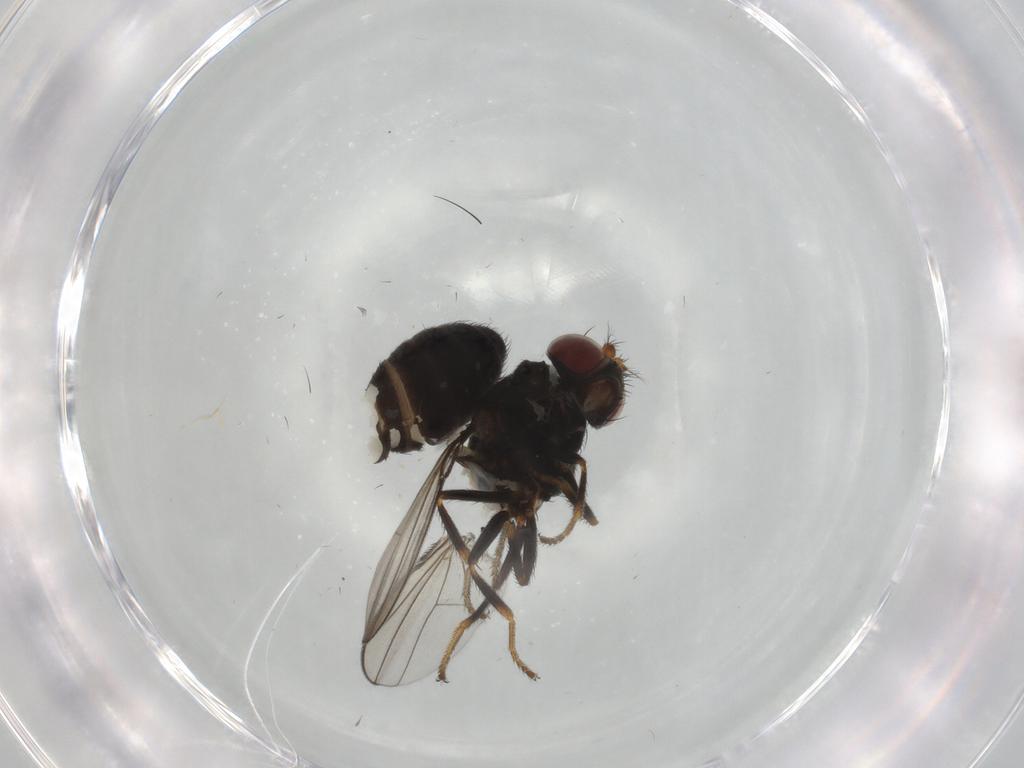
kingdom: Animalia
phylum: Arthropoda
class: Insecta
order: Diptera
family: Ephydridae
